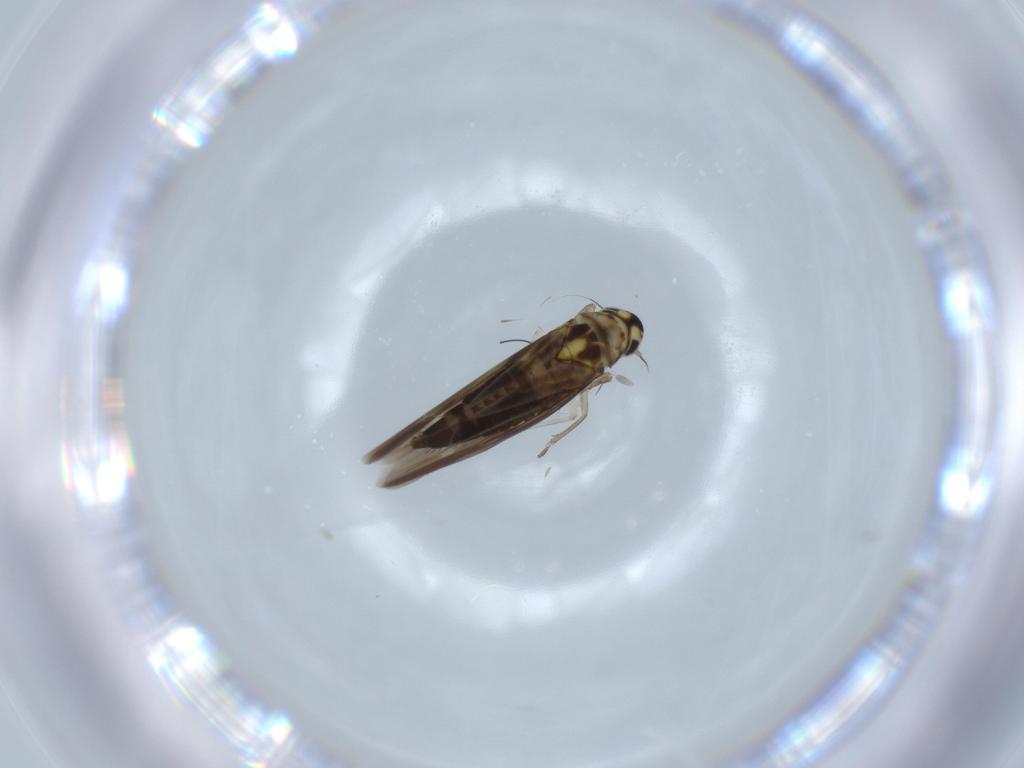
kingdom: Animalia
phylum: Arthropoda
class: Insecta
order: Hemiptera
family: Cicadellidae
